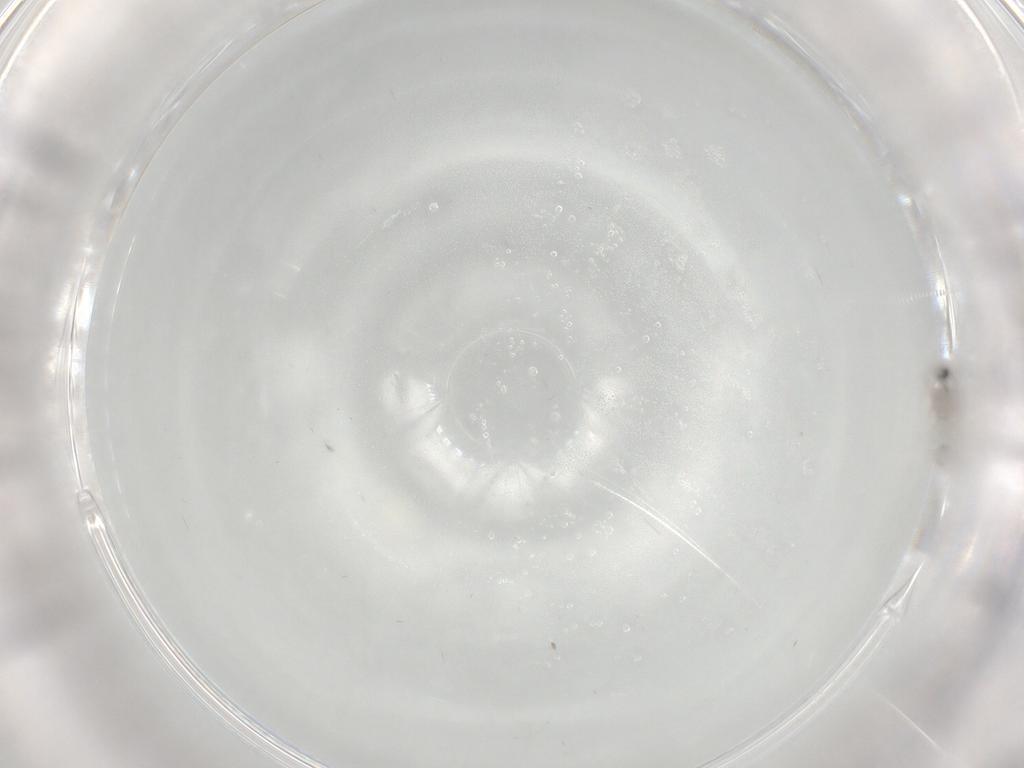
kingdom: Animalia
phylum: Arthropoda
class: Insecta
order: Diptera
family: Cecidomyiidae
